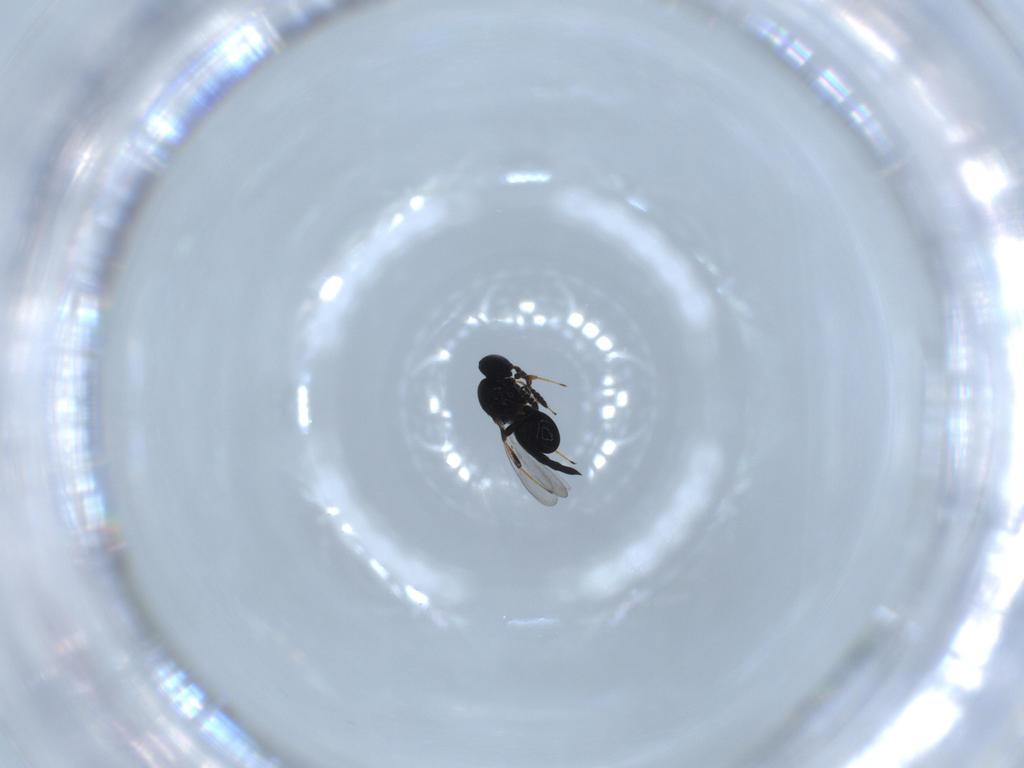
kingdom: Animalia
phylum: Arthropoda
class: Insecta
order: Hymenoptera
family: Platygastridae
